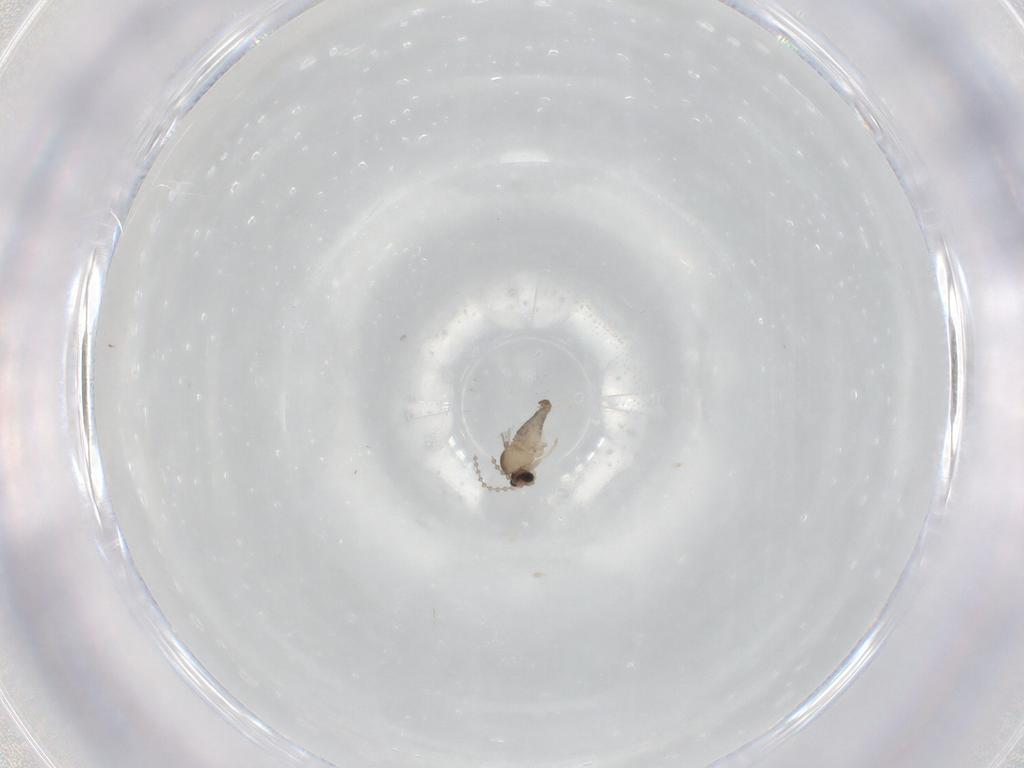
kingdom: Animalia
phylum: Arthropoda
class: Insecta
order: Diptera
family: Cecidomyiidae
